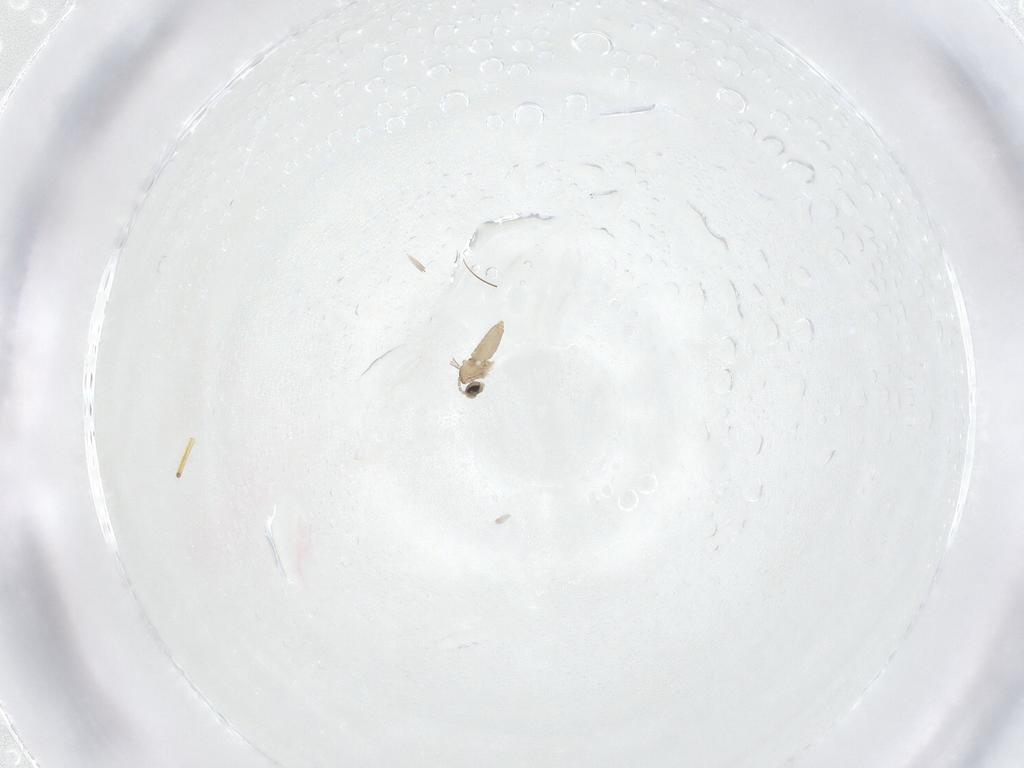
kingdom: Animalia
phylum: Arthropoda
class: Insecta
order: Diptera
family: Cecidomyiidae
